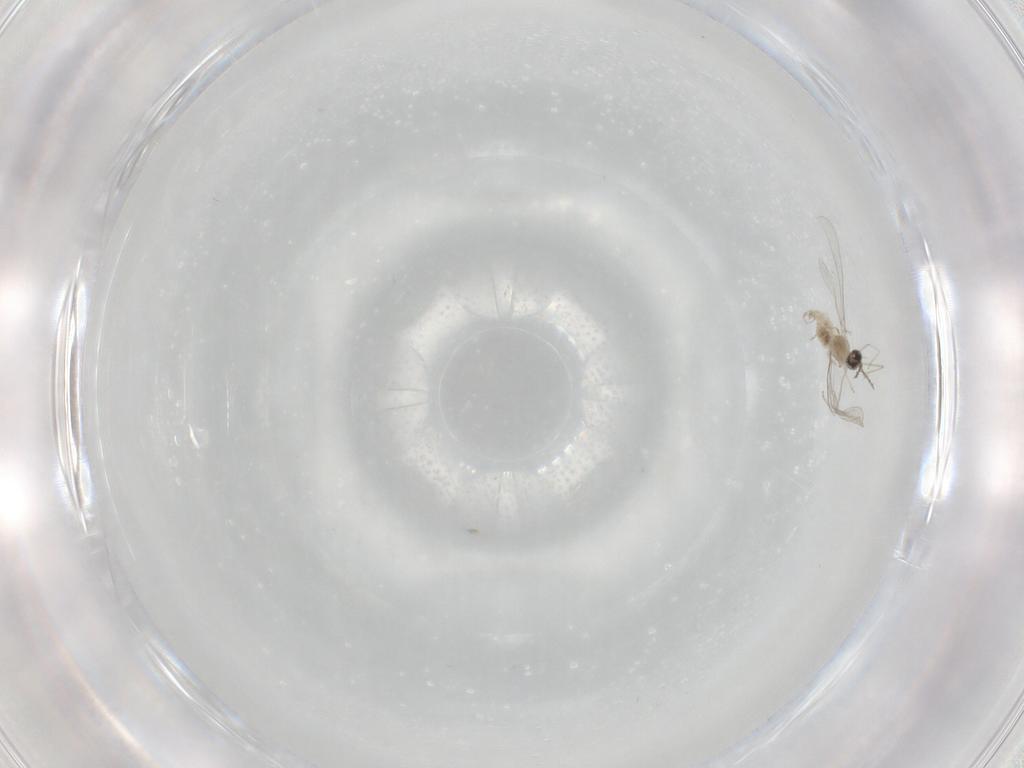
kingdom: Animalia
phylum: Arthropoda
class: Insecta
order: Diptera
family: Chironomidae
